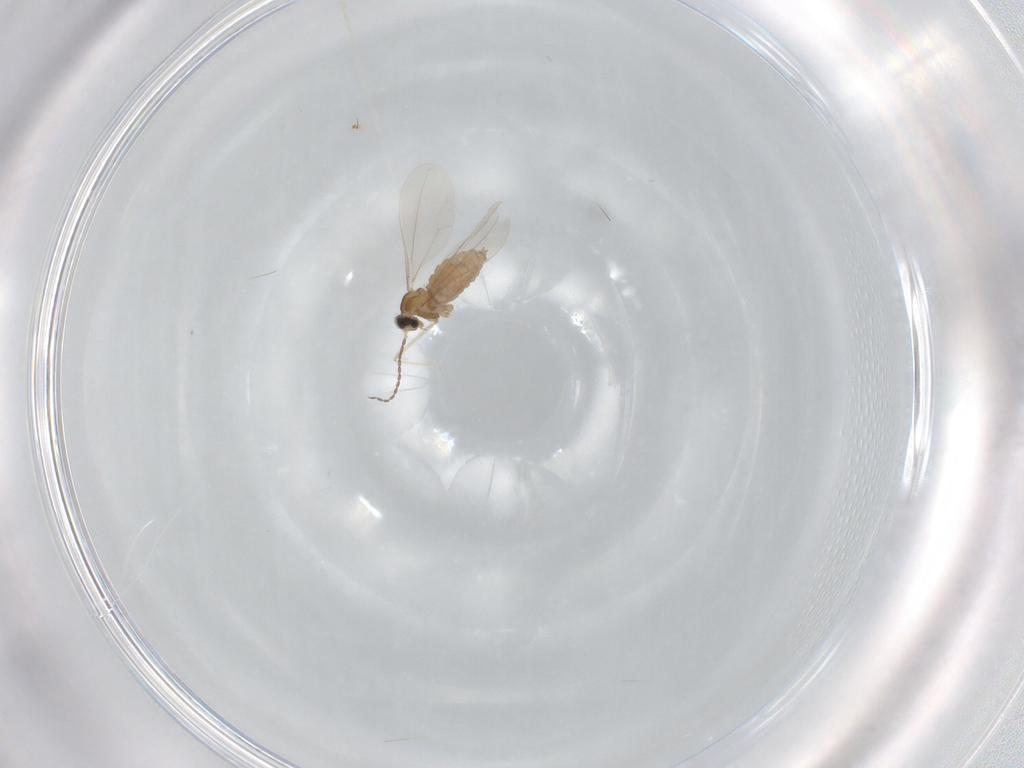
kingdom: Animalia
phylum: Arthropoda
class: Insecta
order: Diptera
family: Cecidomyiidae
